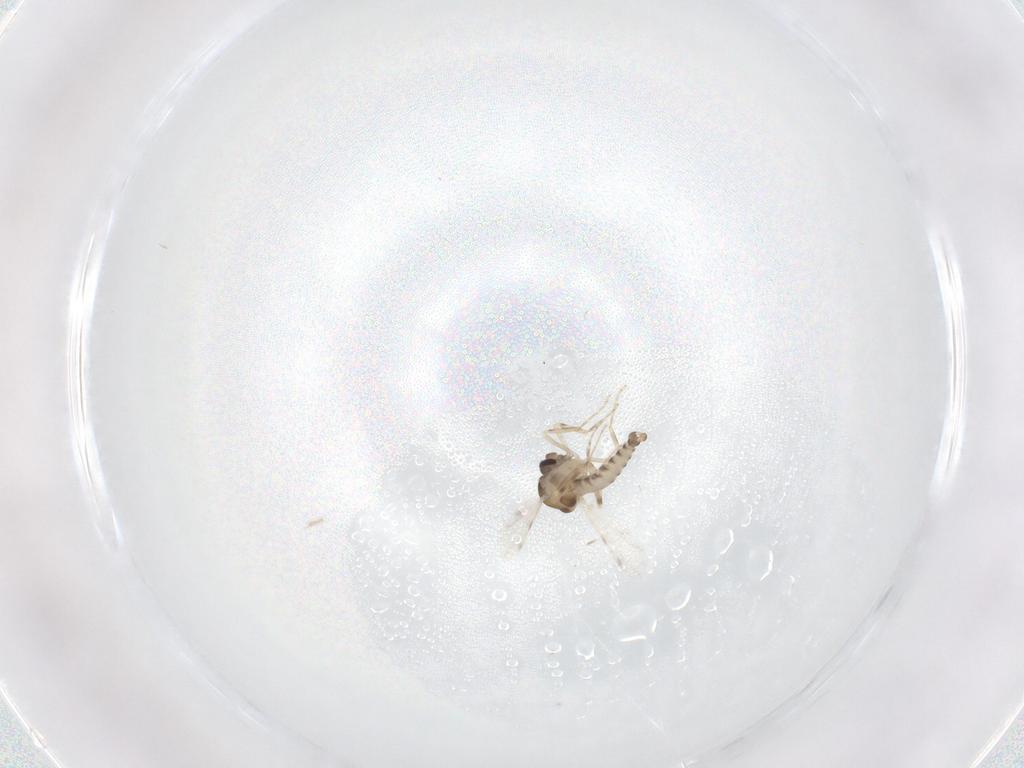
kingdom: Animalia
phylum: Arthropoda
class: Insecta
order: Diptera
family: Ceratopogonidae
